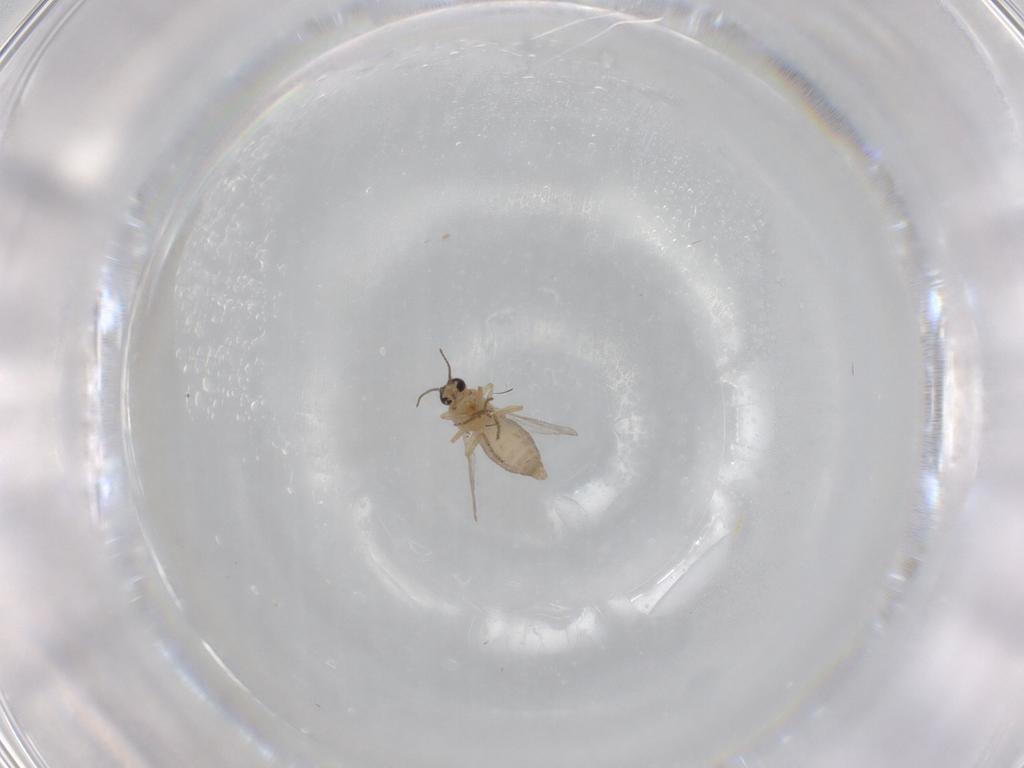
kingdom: Animalia
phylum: Arthropoda
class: Insecta
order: Diptera
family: Ceratopogonidae
